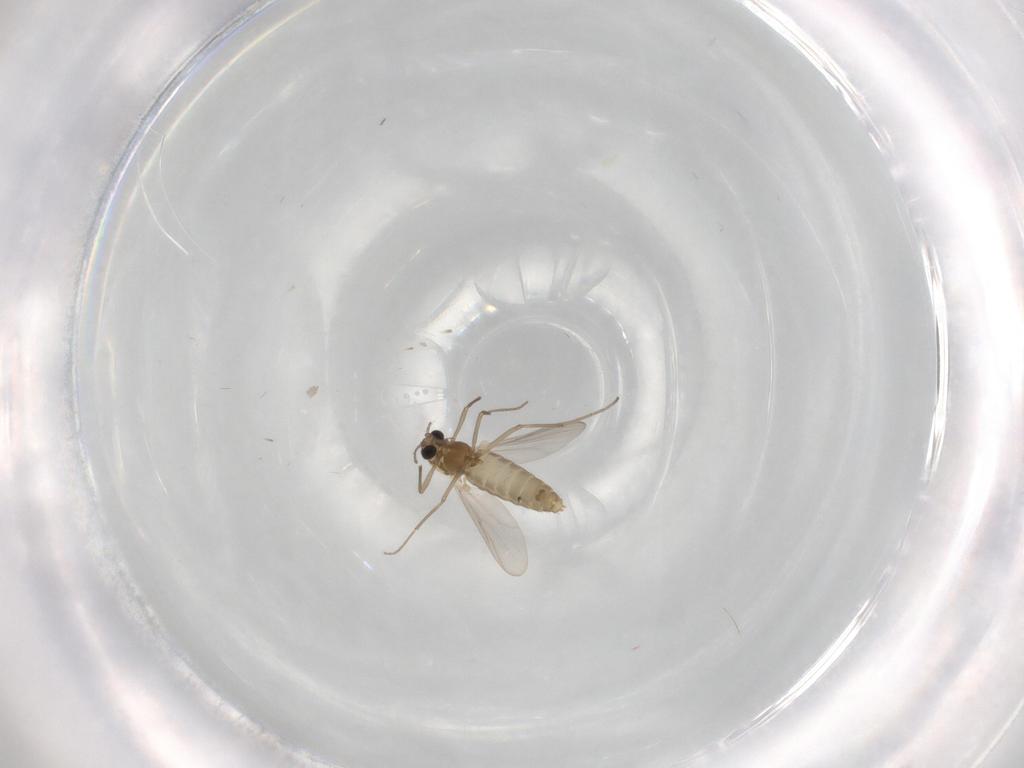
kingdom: Animalia
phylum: Arthropoda
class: Insecta
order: Diptera
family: Chironomidae
